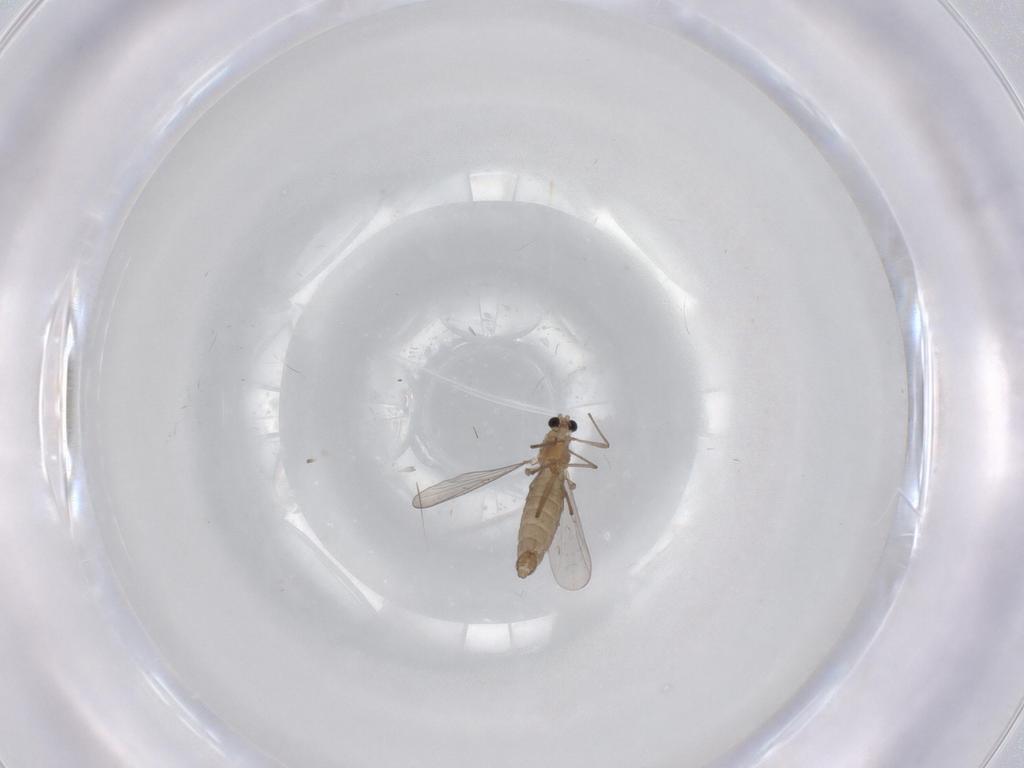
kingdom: Animalia
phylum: Arthropoda
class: Insecta
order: Diptera
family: Chironomidae
